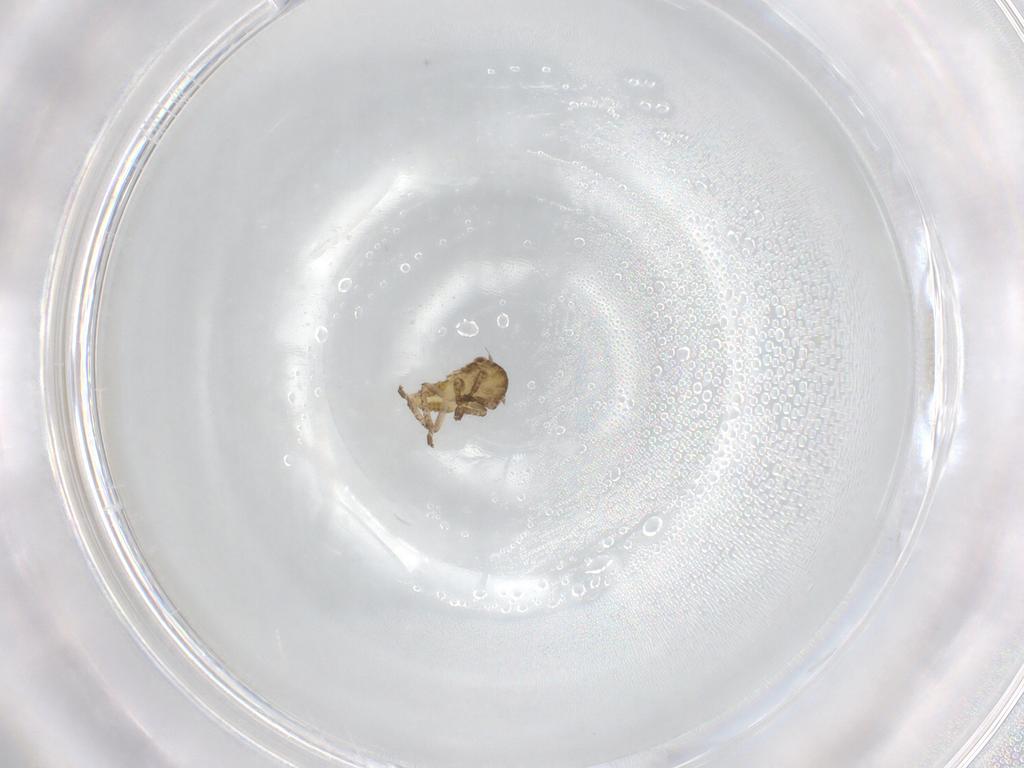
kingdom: Animalia
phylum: Arthropoda
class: Insecta
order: Hemiptera
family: Cicadellidae
